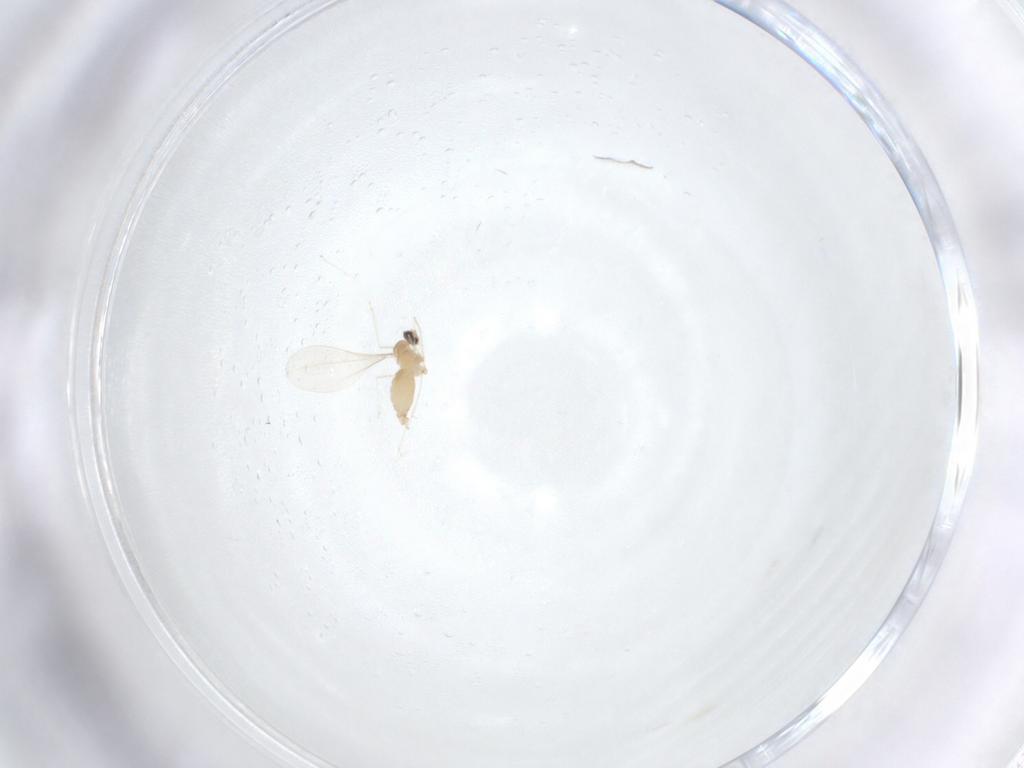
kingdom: Animalia
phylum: Arthropoda
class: Insecta
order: Diptera
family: Cecidomyiidae
